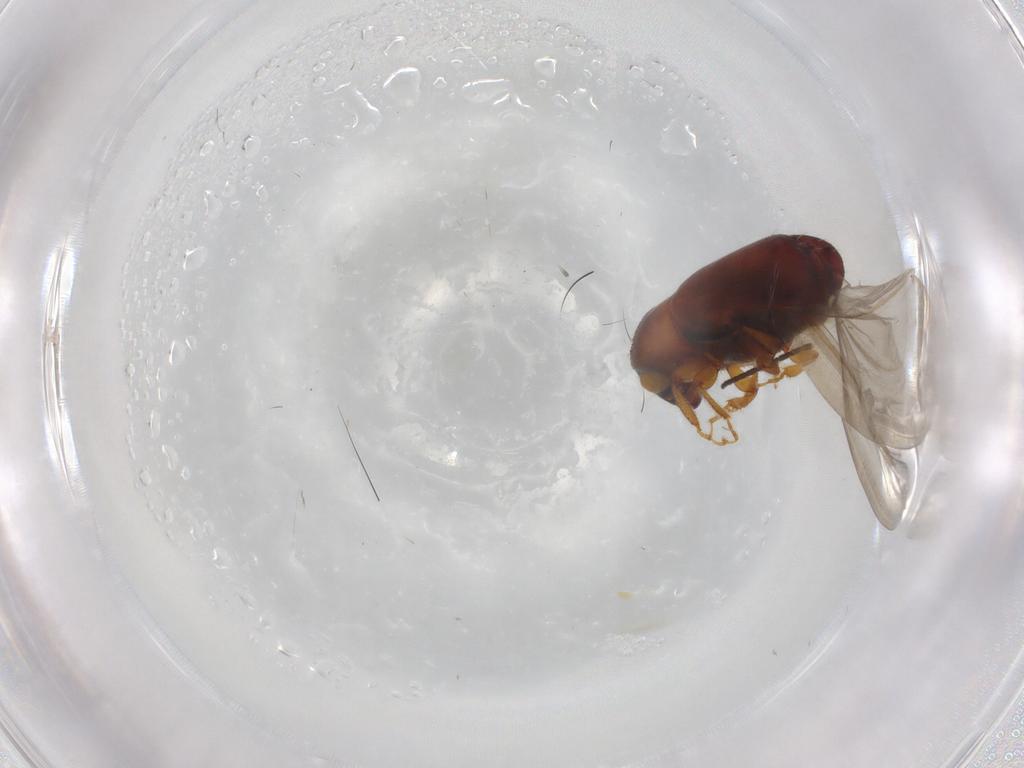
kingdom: Animalia
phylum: Arthropoda
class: Insecta
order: Coleoptera
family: Curculionidae
